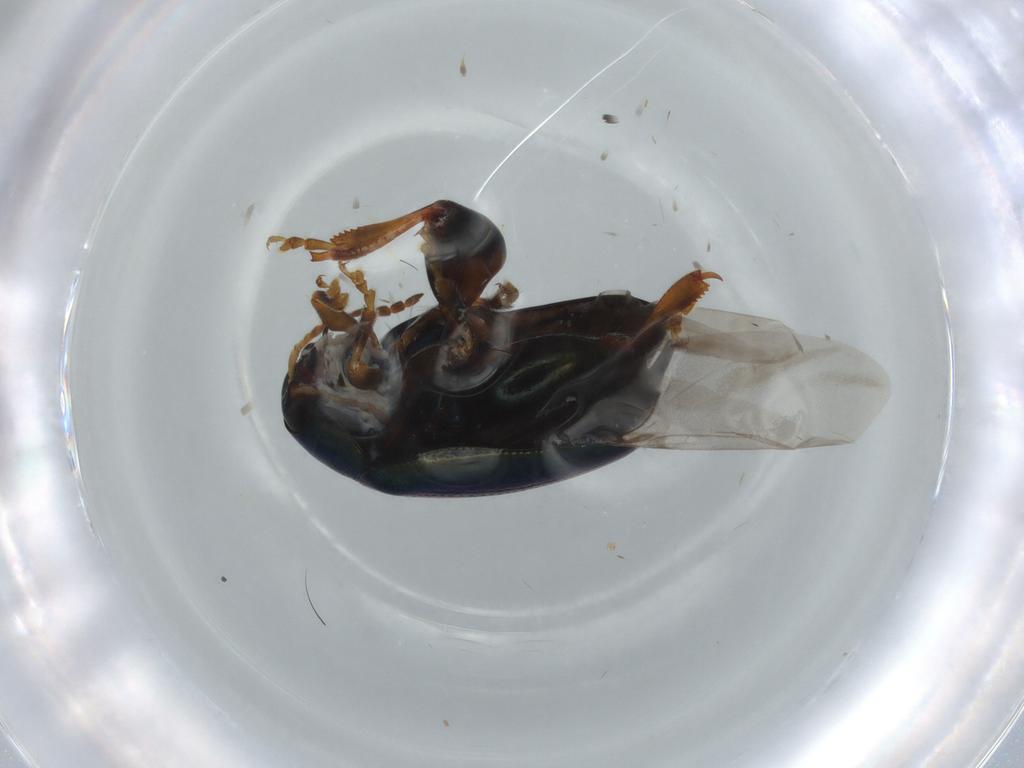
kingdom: Animalia
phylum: Arthropoda
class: Insecta
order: Coleoptera
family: Chrysomelidae
